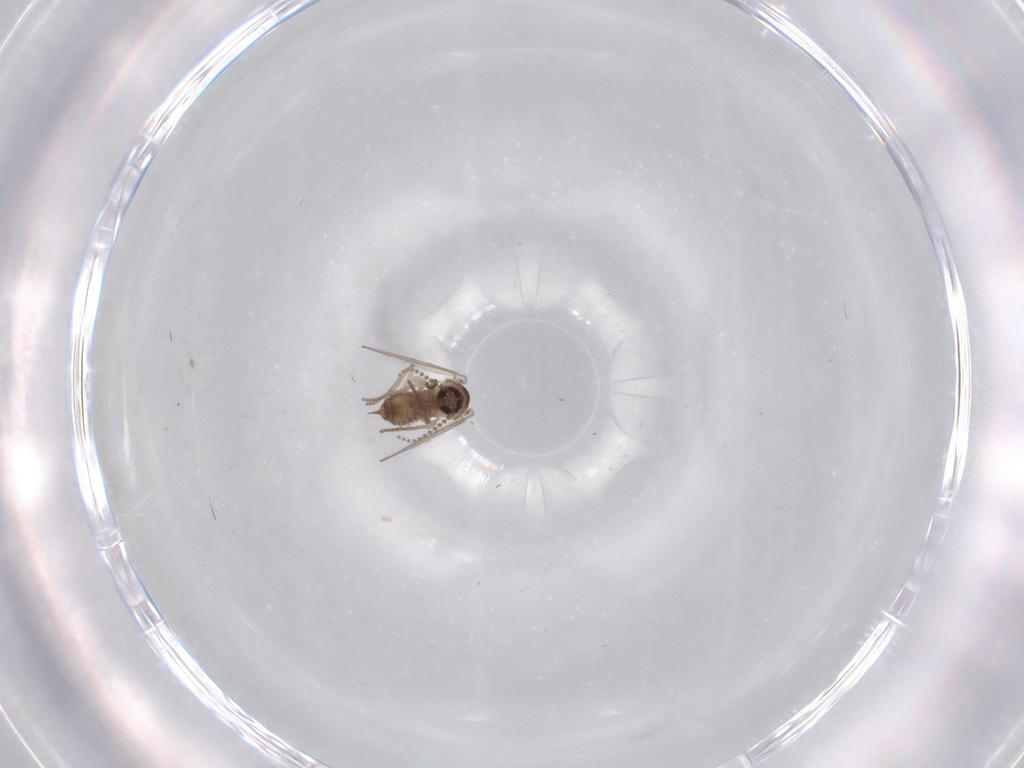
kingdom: Animalia
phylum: Arthropoda
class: Insecta
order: Diptera
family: Psychodidae
